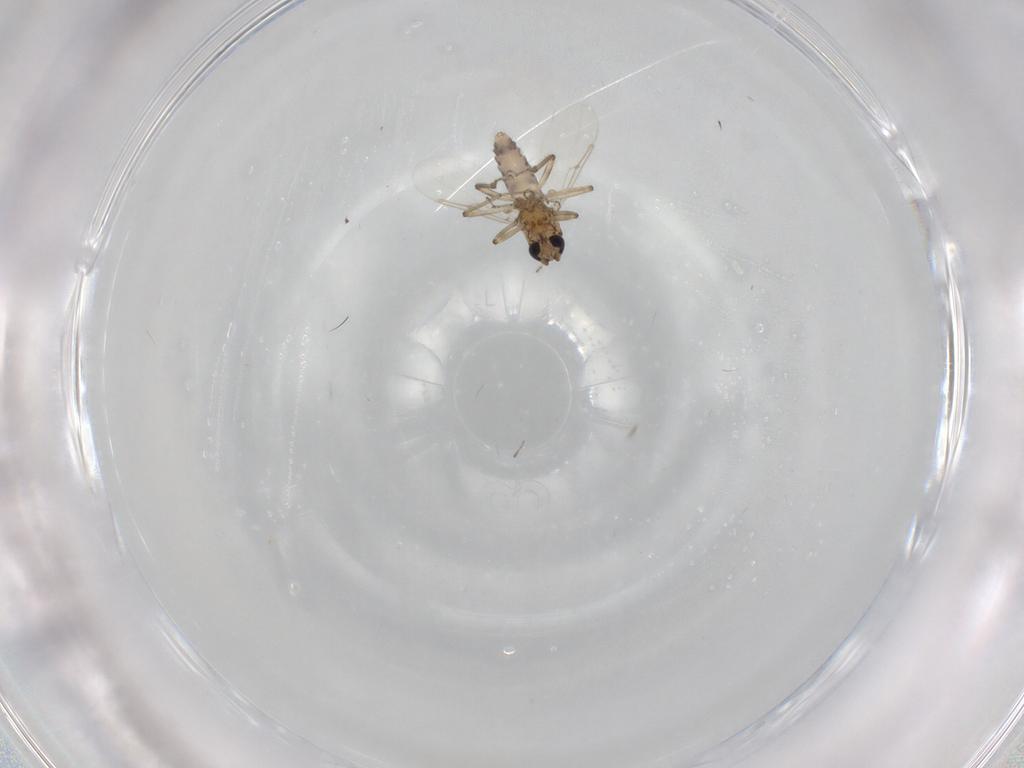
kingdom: Animalia
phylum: Arthropoda
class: Insecta
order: Diptera
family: Ceratopogonidae
